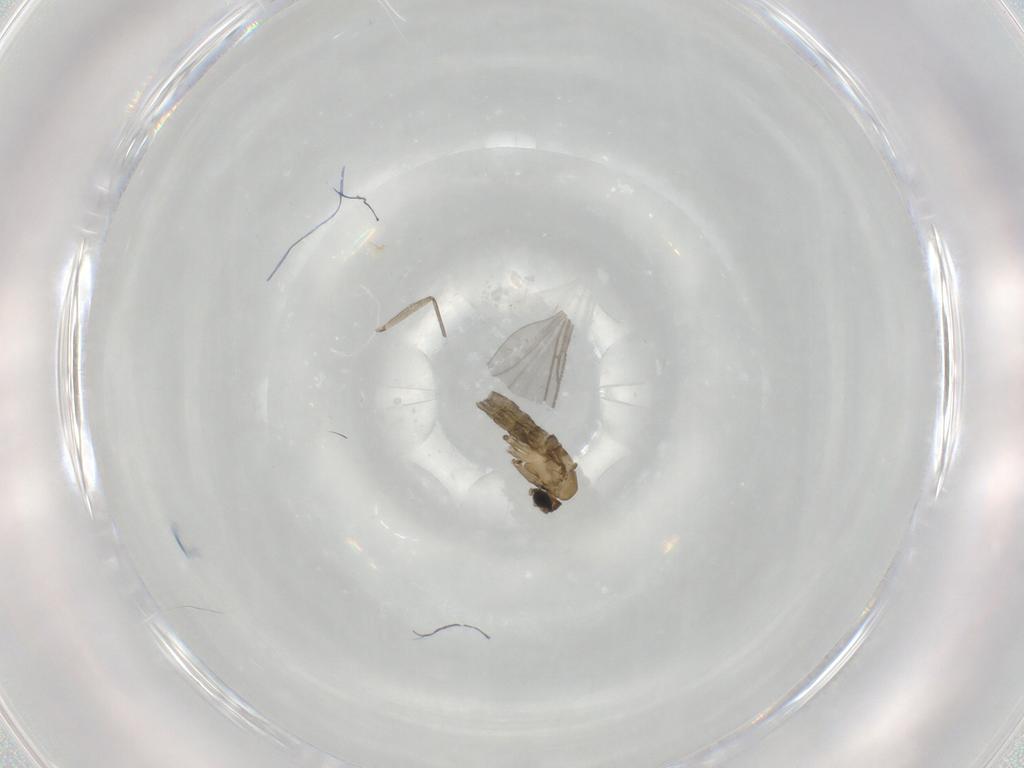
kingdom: Animalia
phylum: Arthropoda
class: Insecta
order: Diptera
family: Sciaridae
